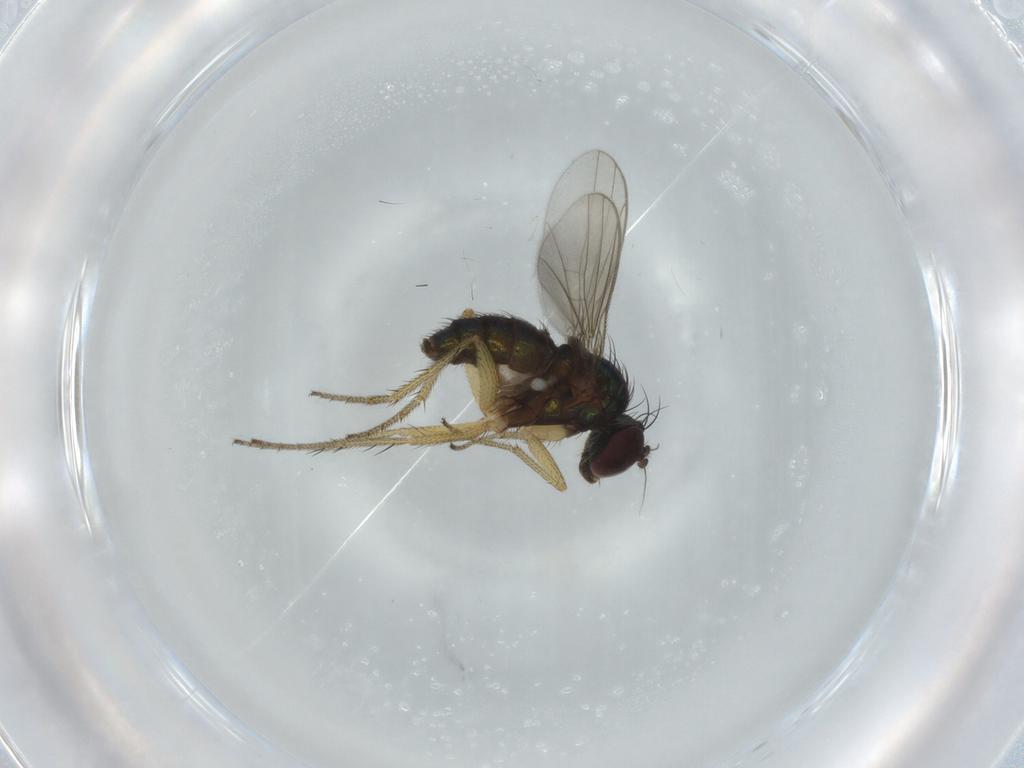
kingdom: Animalia
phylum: Arthropoda
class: Insecta
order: Diptera
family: Dolichopodidae
